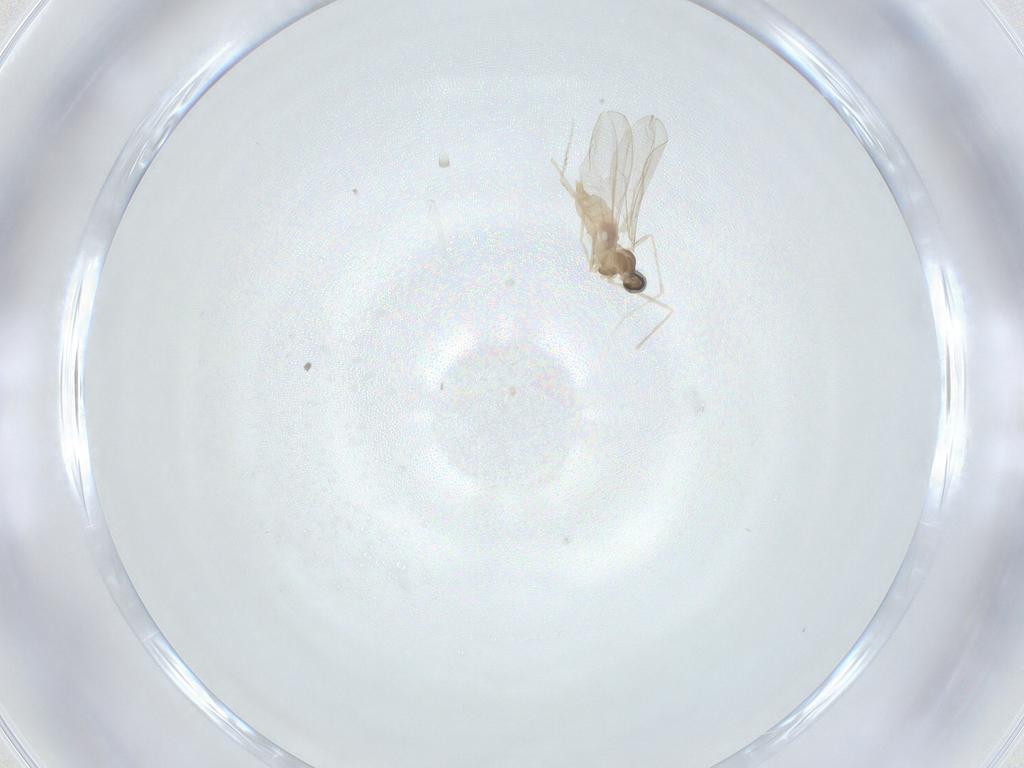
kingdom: Animalia
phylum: Arthropoda
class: Insecta
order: Diptera
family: Cecidomyiidae
